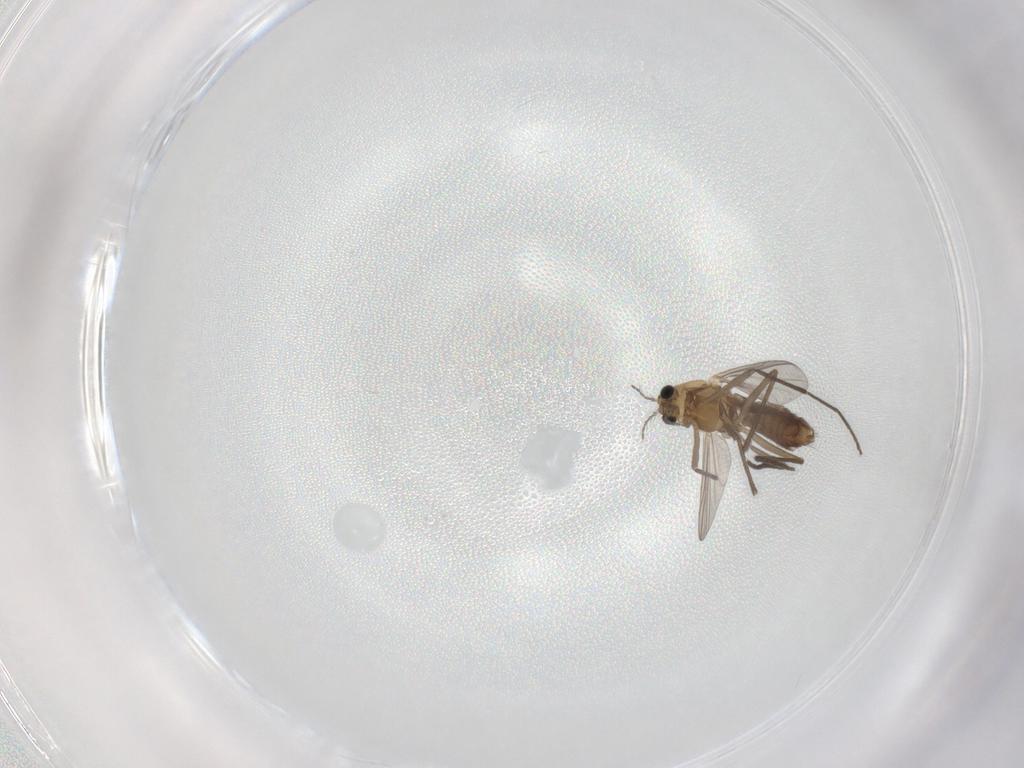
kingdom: Animalia
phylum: Arthropoda
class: Insecta
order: Diptera
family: Chironomidae
